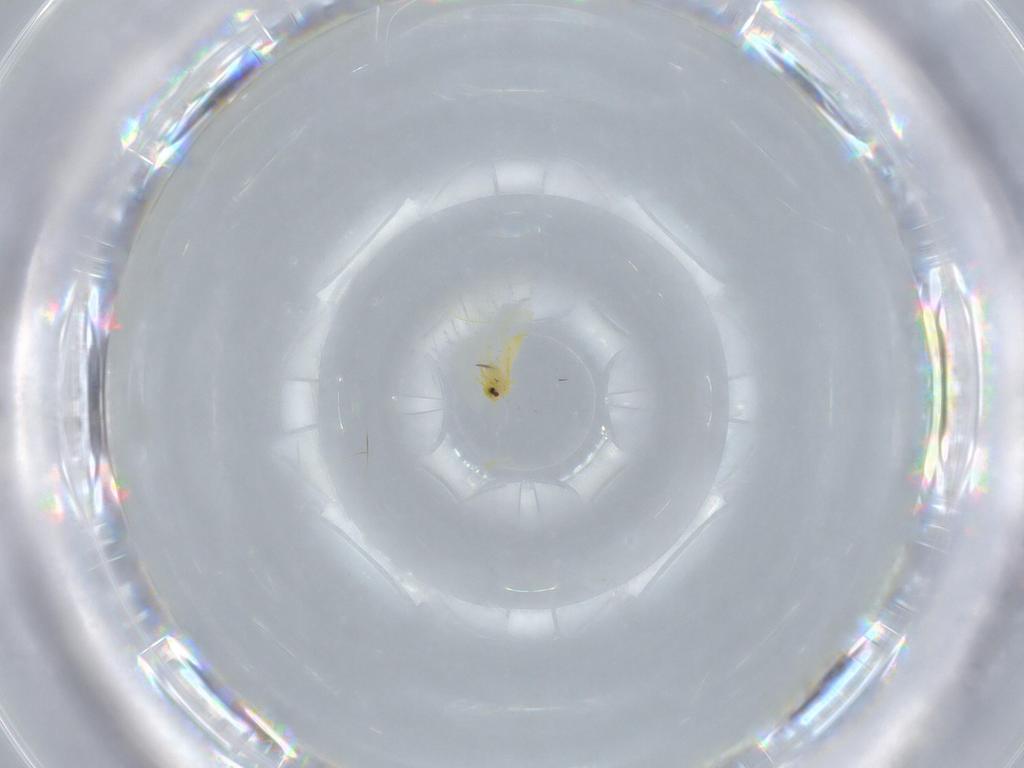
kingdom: Animalia
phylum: Arthropoda
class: Insecta
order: Hemiptera
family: Aleyrodidae
